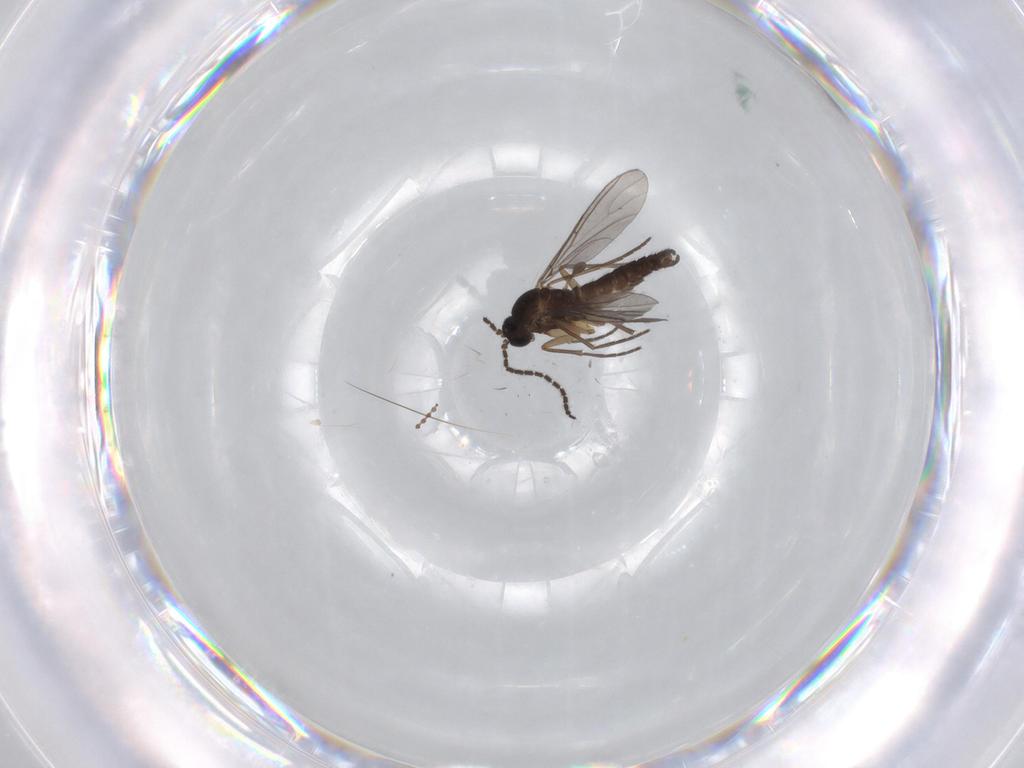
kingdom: Animalia
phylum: Arthropoda
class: Insecta
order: Diptera
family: Sciaridae
